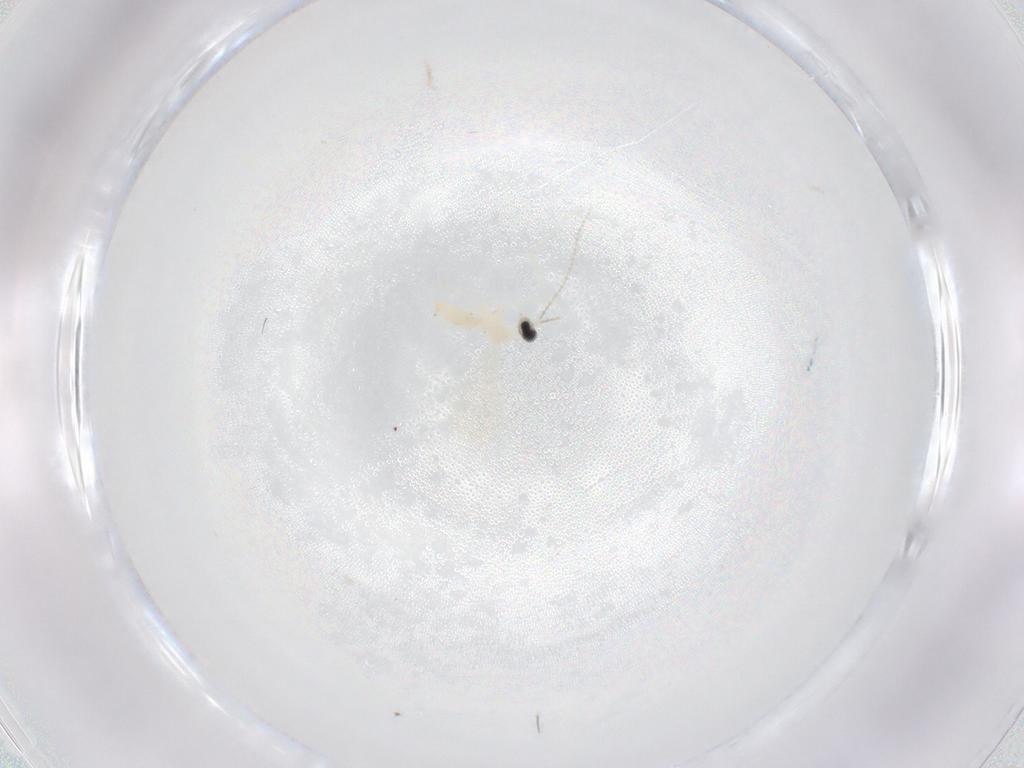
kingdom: Animalia
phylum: Arthropoda
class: Insecta
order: Diptera
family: Cecidomyiidae
